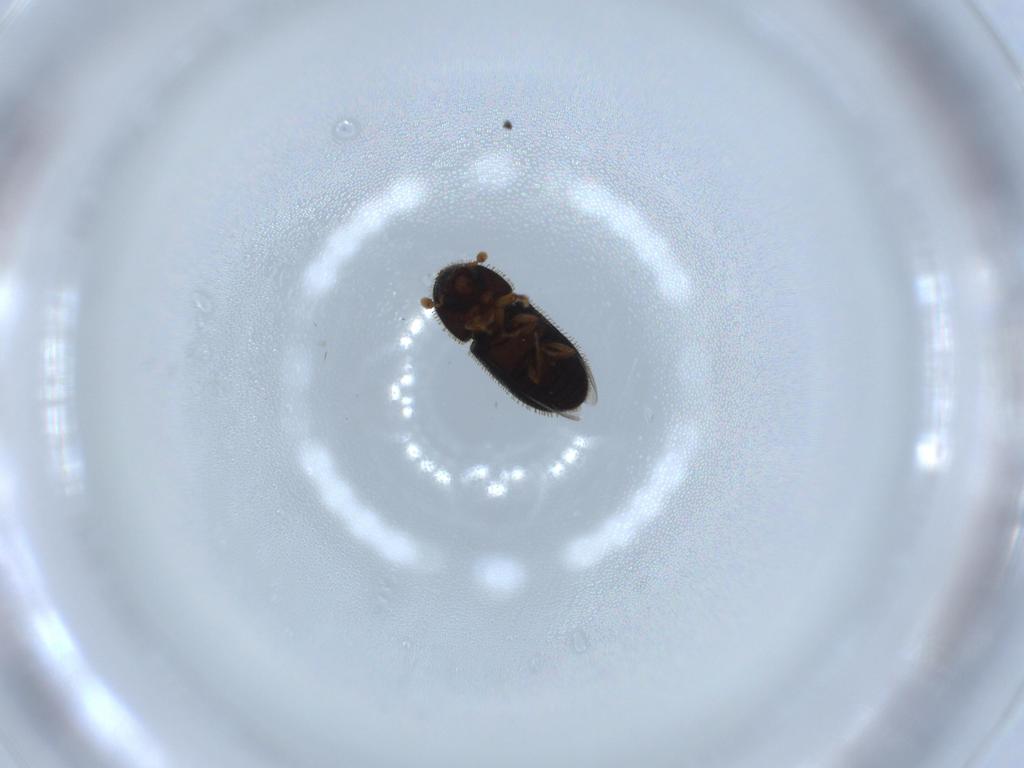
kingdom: Animalia
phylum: Arthropoda
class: Insecta
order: Coleoptera
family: Curculionidae
